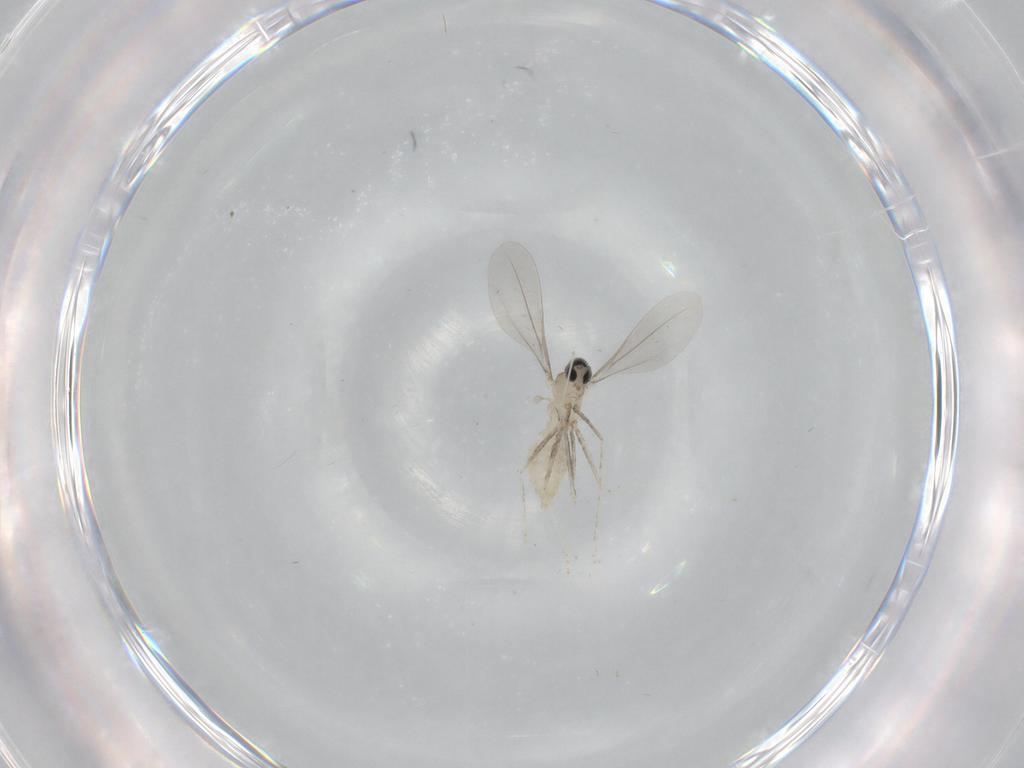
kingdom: Animalia
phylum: Arthropoda
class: Insecta
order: Diptera
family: Cecidomyiidae
